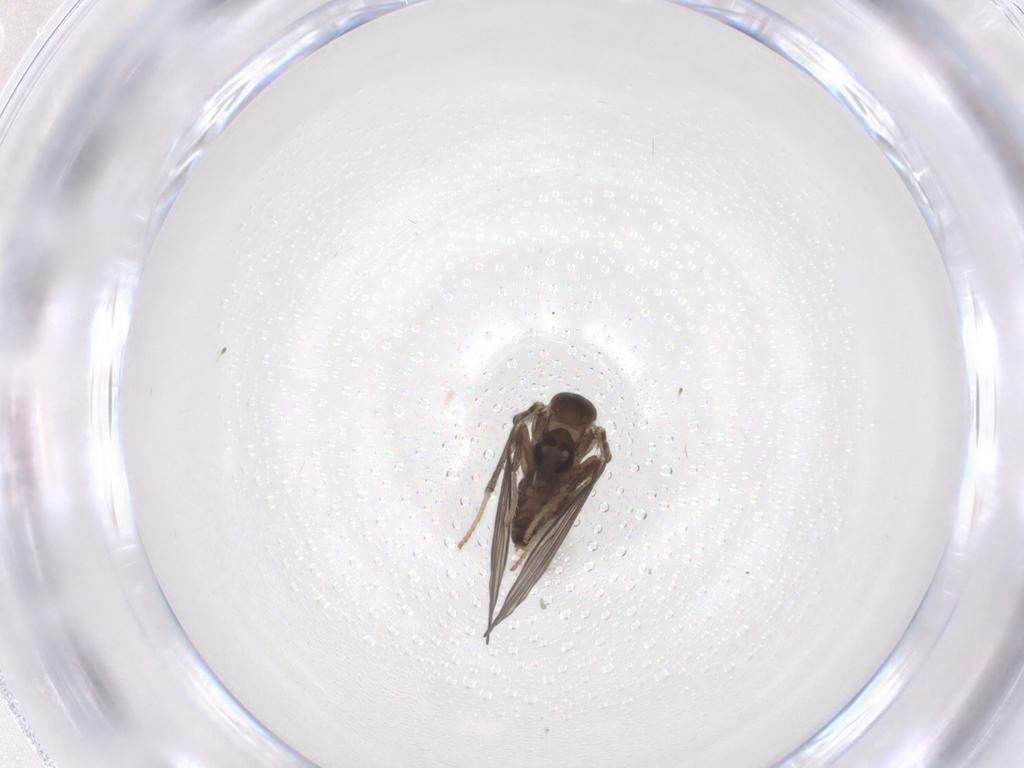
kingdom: Animalia
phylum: Arthropoda
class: Insecta
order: Diptera
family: Psychodidae
